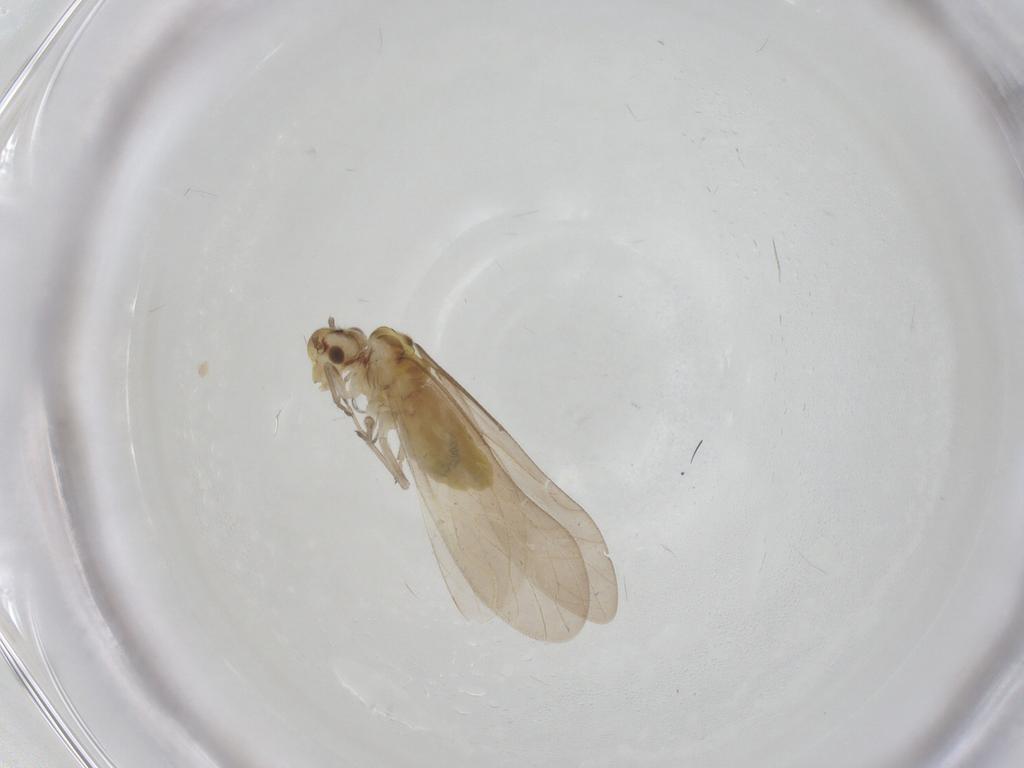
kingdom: Animalia
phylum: Arthropoda
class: Insecta
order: Psocodea
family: Caeciliusidae
